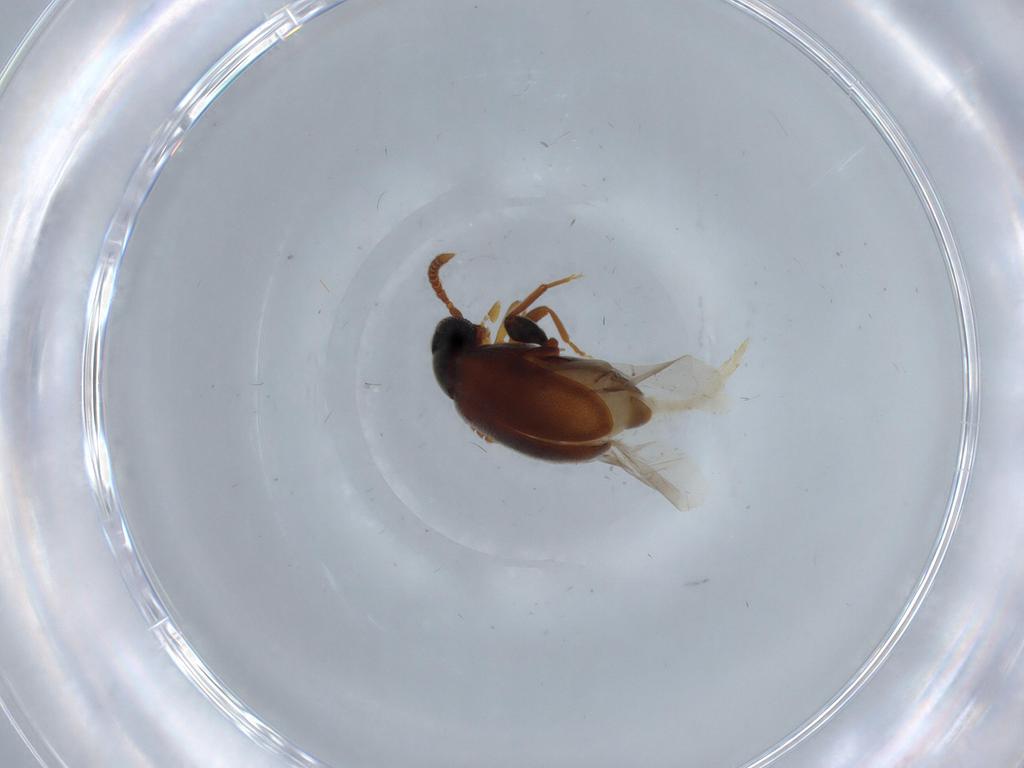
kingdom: Animalia
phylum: Arthropoda
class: Insecta
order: Coleoptera
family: Aderidae
